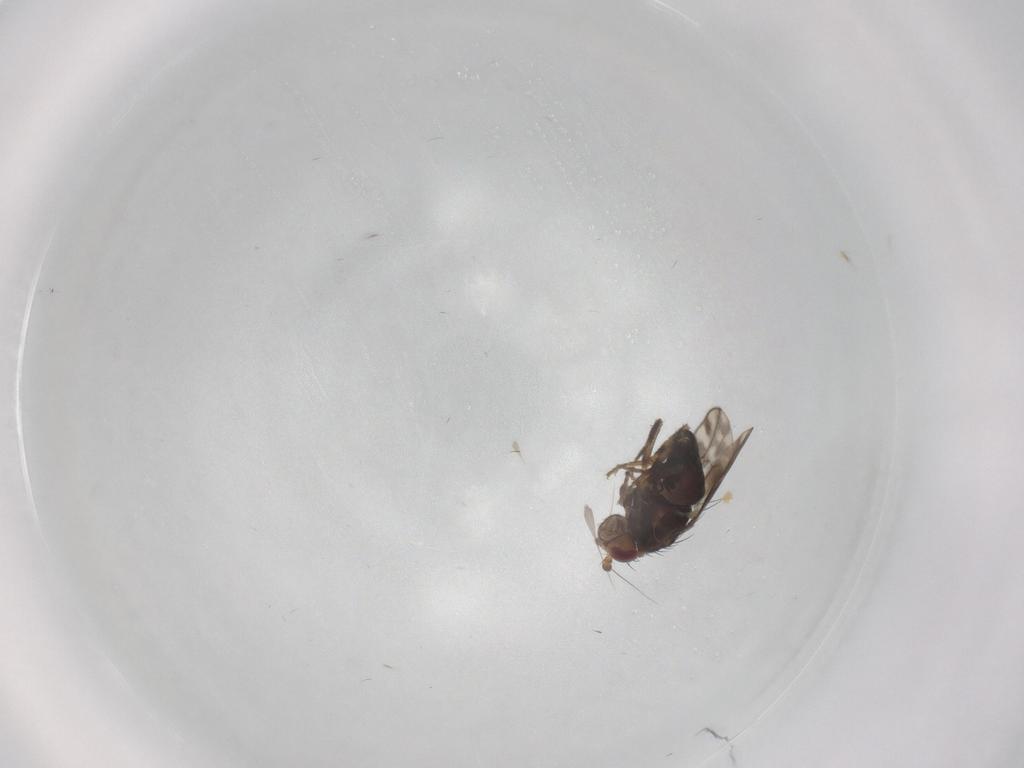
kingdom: Animalia
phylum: Arthropoda
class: Insecta
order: Diptera
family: Sphaeroceridae
